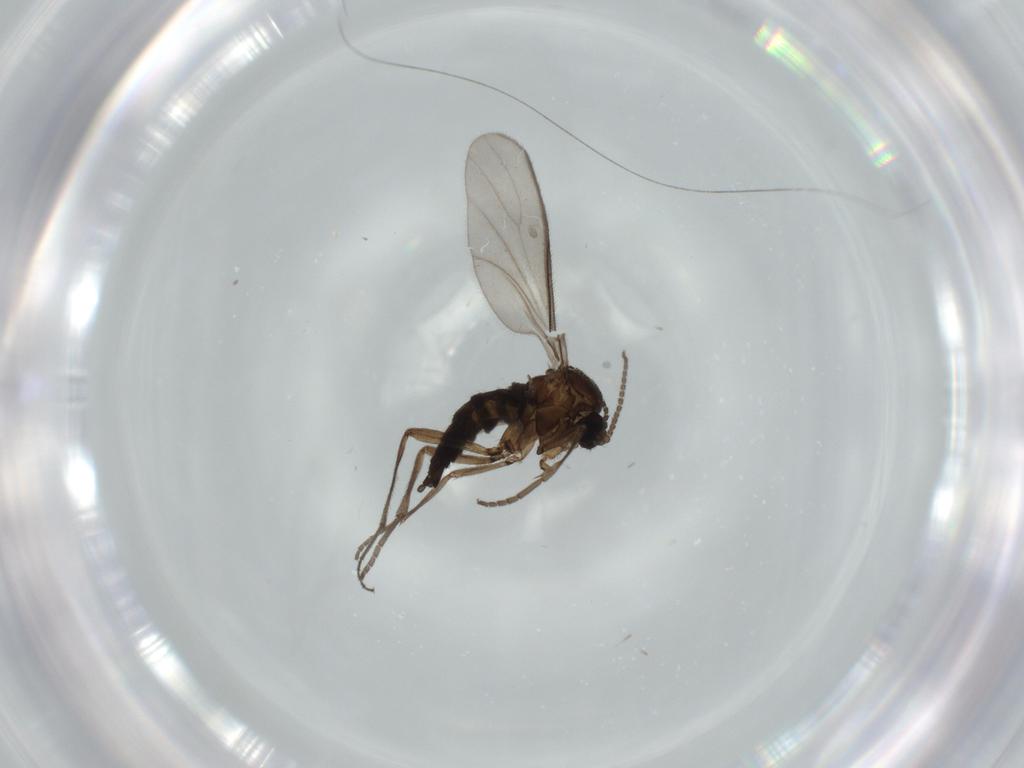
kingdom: Animalia
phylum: Arthropoda
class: Insecta
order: Diptera
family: Sciaridae
